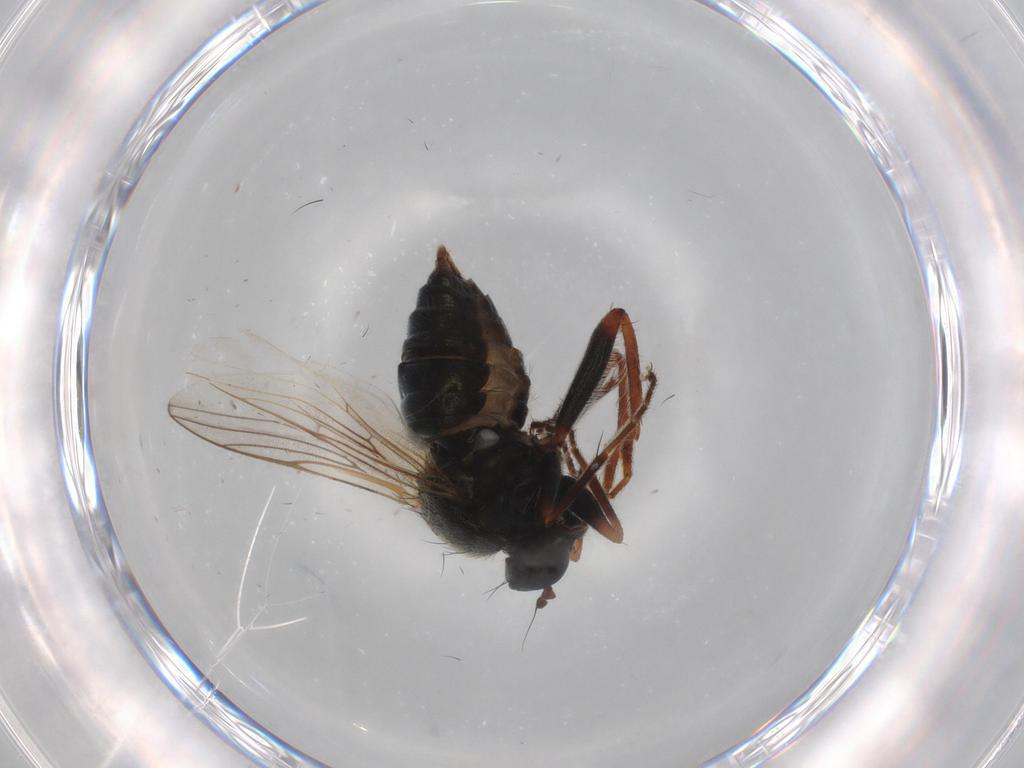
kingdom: Animalia
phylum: Arthropoda
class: Insecta
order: Diptera
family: Hybotidae
